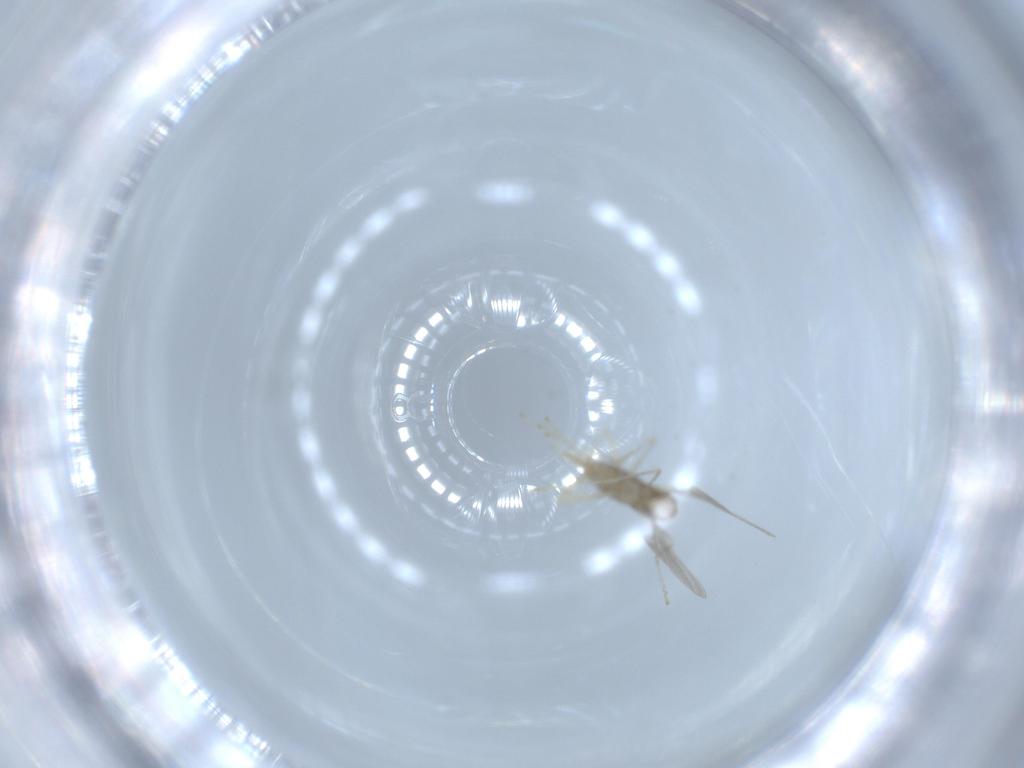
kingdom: Animalia
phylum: Arthropoda
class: Insecta
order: Diptera
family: Cecidomyiidae
